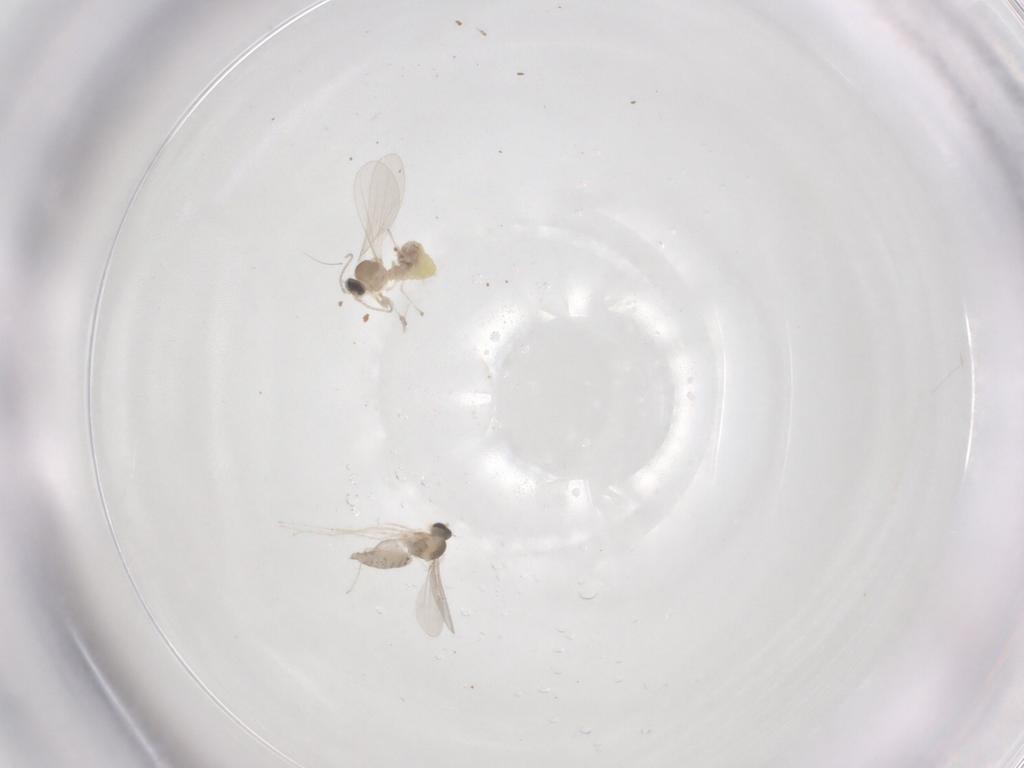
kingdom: Animalia
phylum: Arthropoda
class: Insecta
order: Diptera
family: Cecidomyiidae
